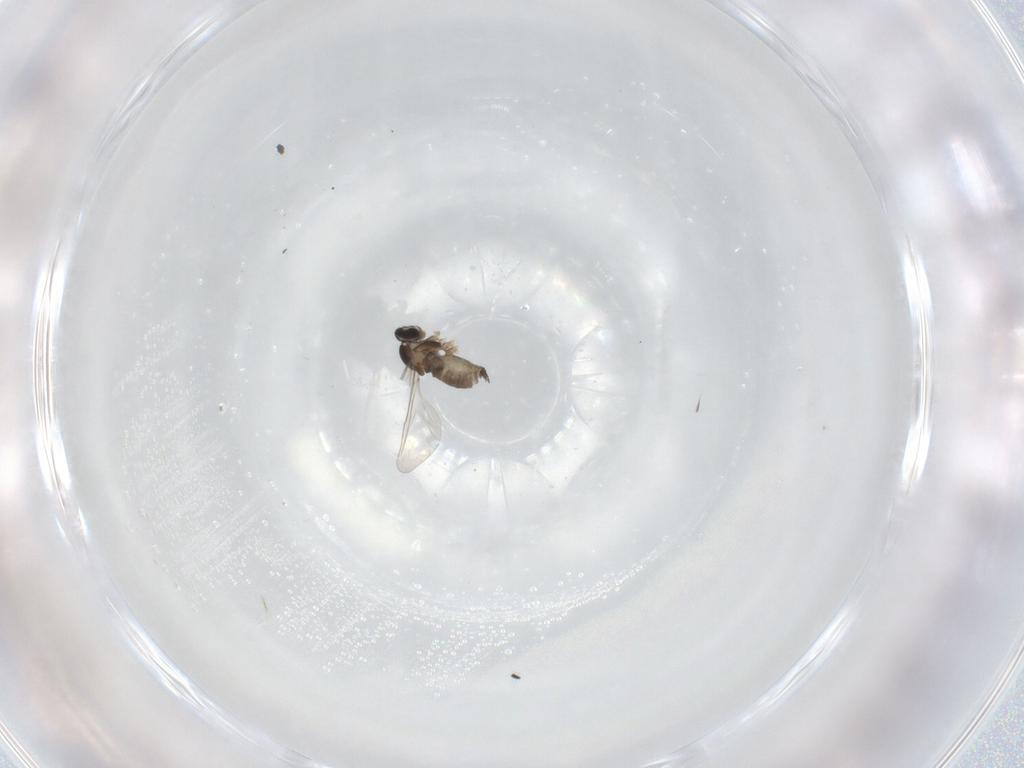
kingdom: Animalia
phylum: Arthropoda
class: Insecta
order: Diptera
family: Cecidomyiidae
